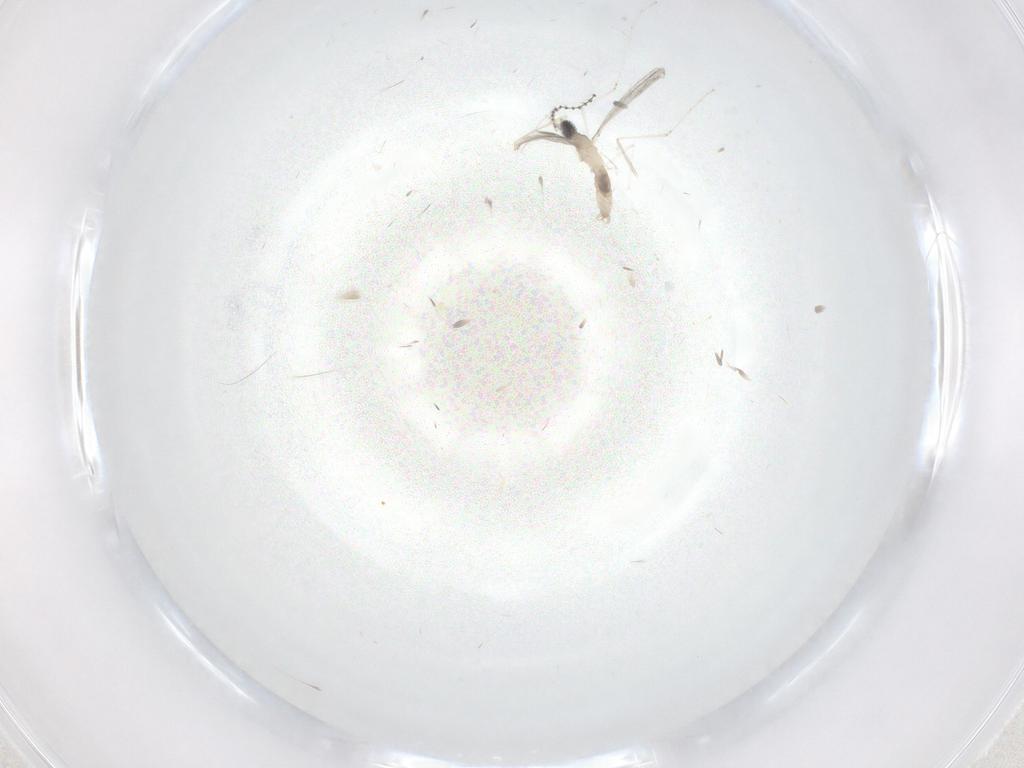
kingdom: Animalia
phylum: Arthropoda
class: Insecta
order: Diptera
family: Cecidomyiidae
